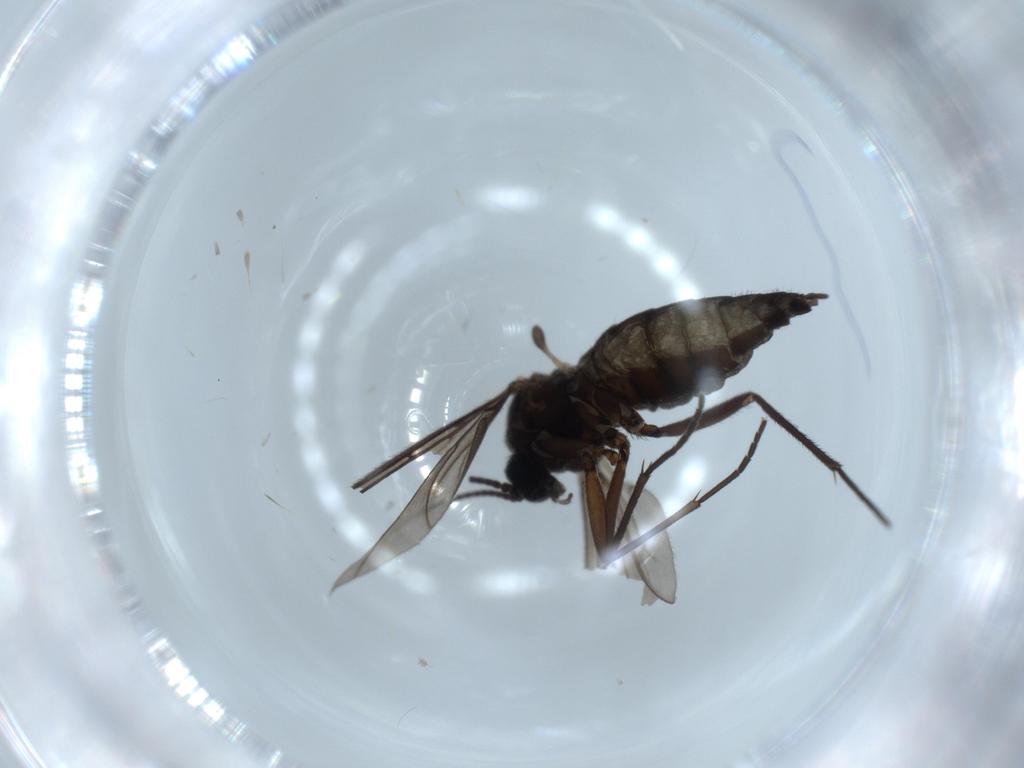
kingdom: Animalia
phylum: Arthropoda
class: Insecta
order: Diptera
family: Sciaridae
